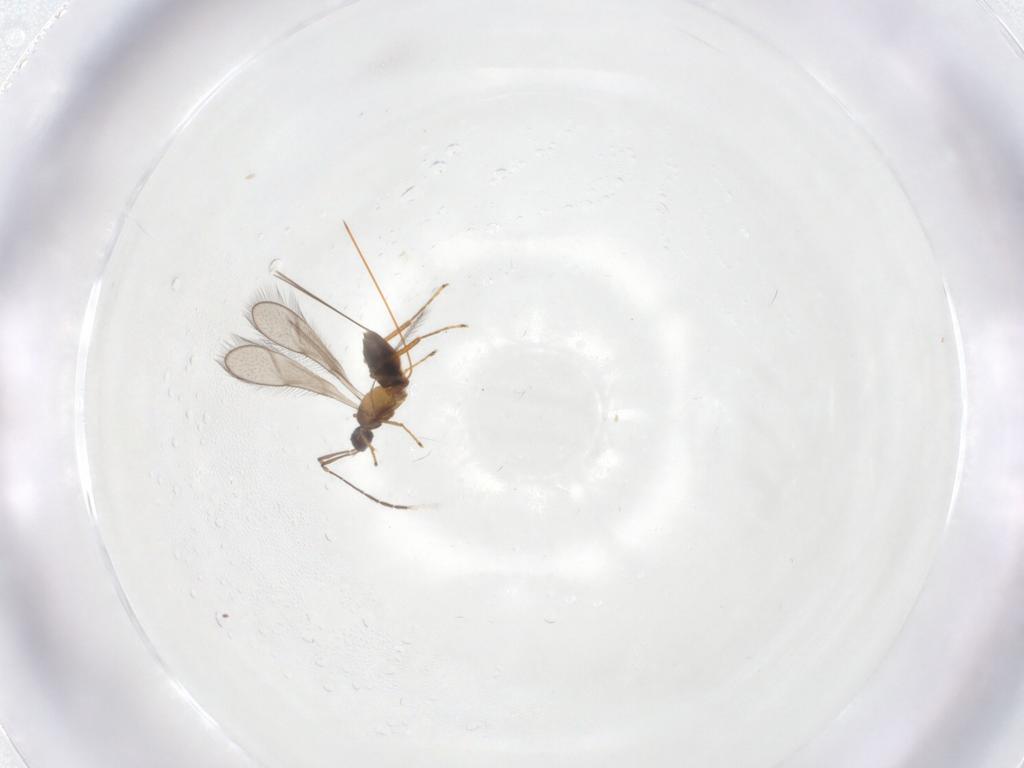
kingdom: Animalia
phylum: Arthropoda
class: Insecta
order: Hymenoptera
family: Mymaridae
